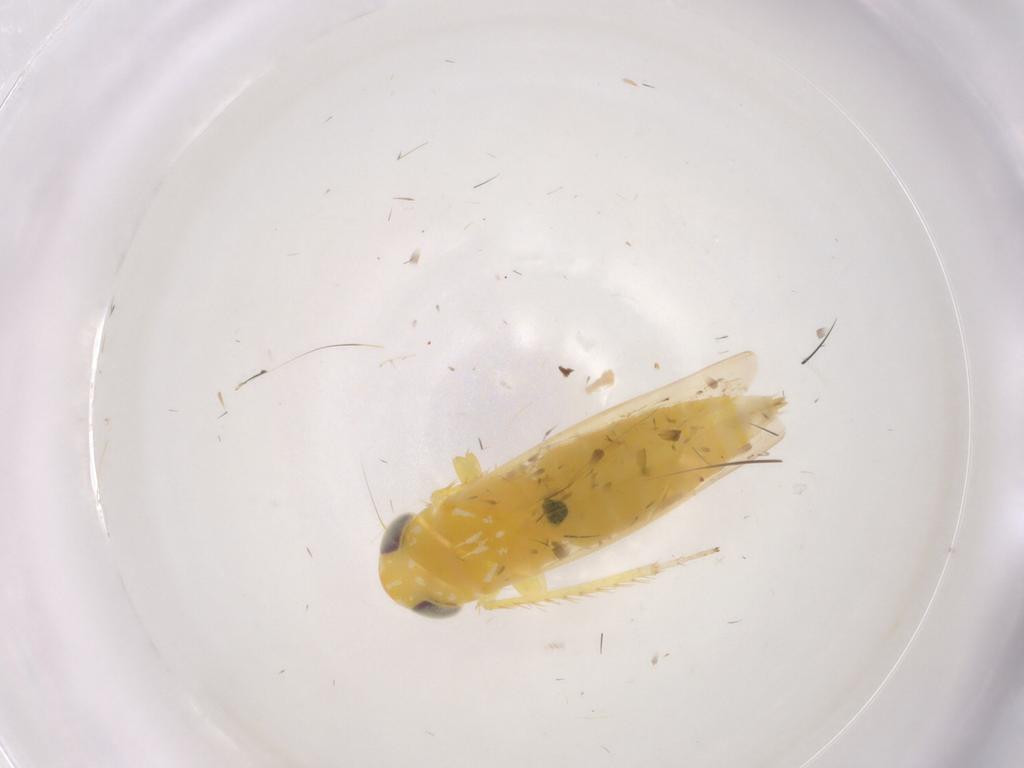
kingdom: Animalia
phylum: Arthropoda
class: Insecta
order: Hemiptera
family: Cicadellidae
